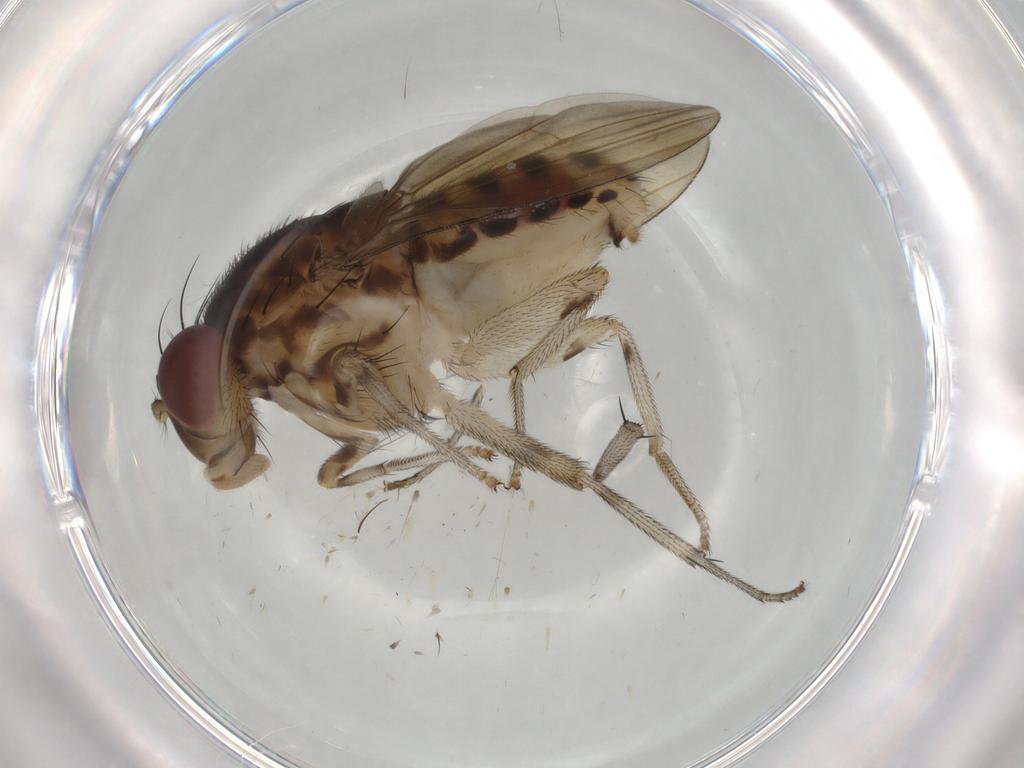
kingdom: Animalia
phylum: Arthropoda
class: Insecta
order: Diptera
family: Lauxaniidae
